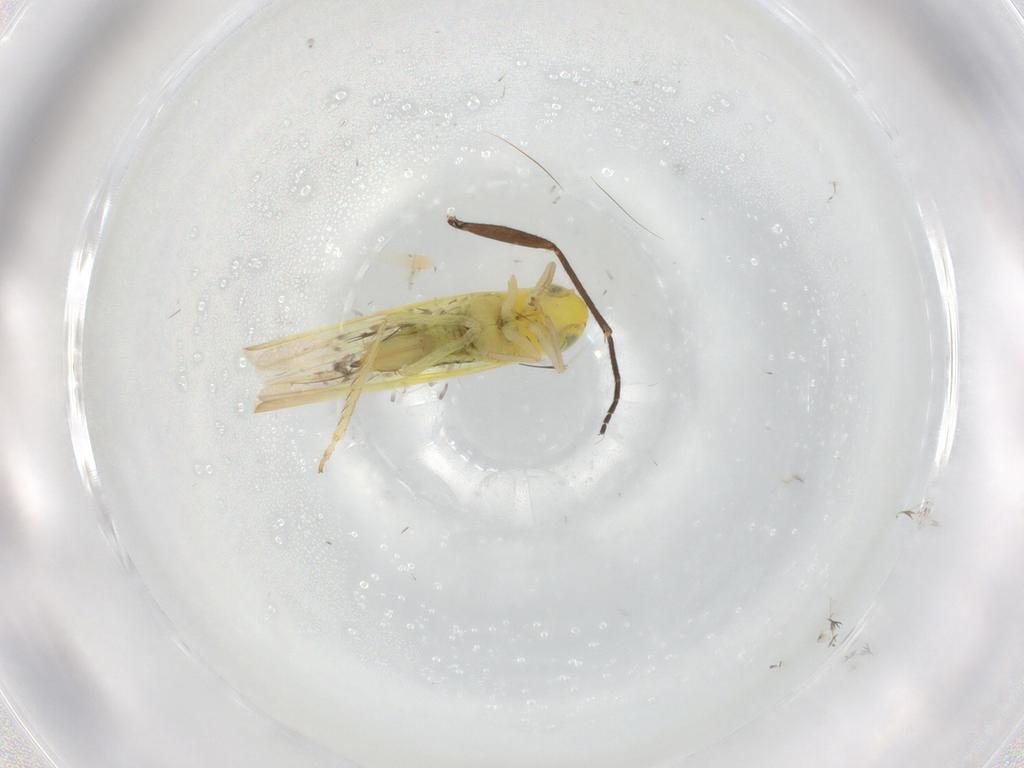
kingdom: Animalia
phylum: Arthropoda
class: Insecta
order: Hemiptera
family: Cicadellidae
